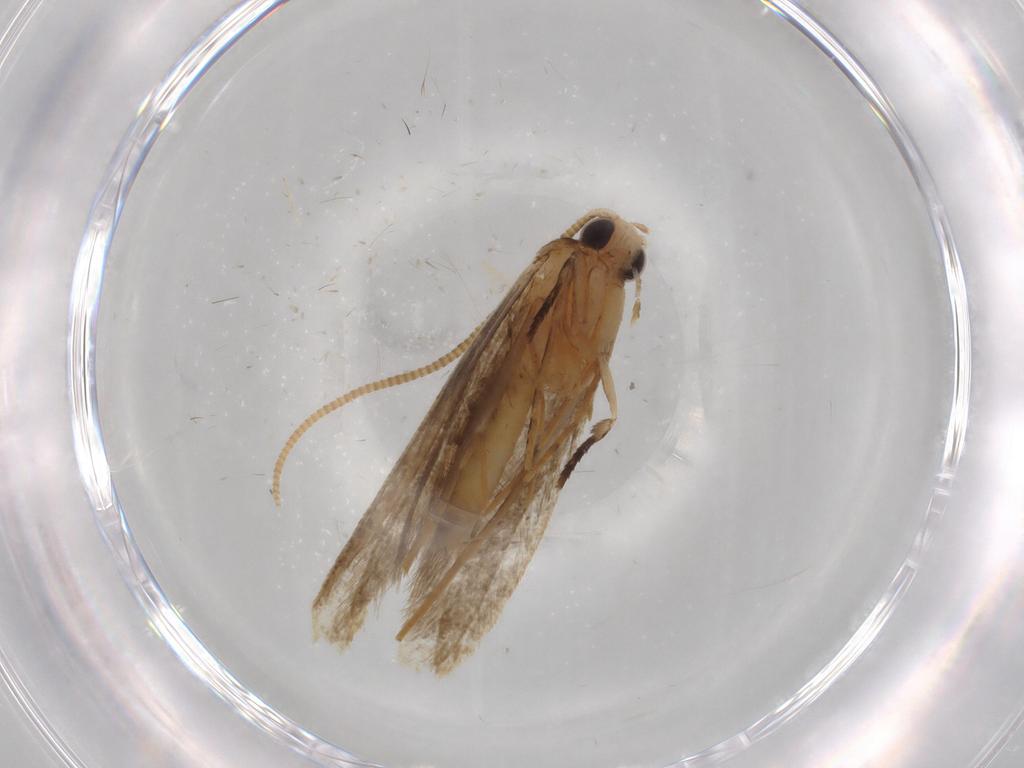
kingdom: Animalia
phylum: Arthropoda
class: Insecta
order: Lepidoptera
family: Tineidae
